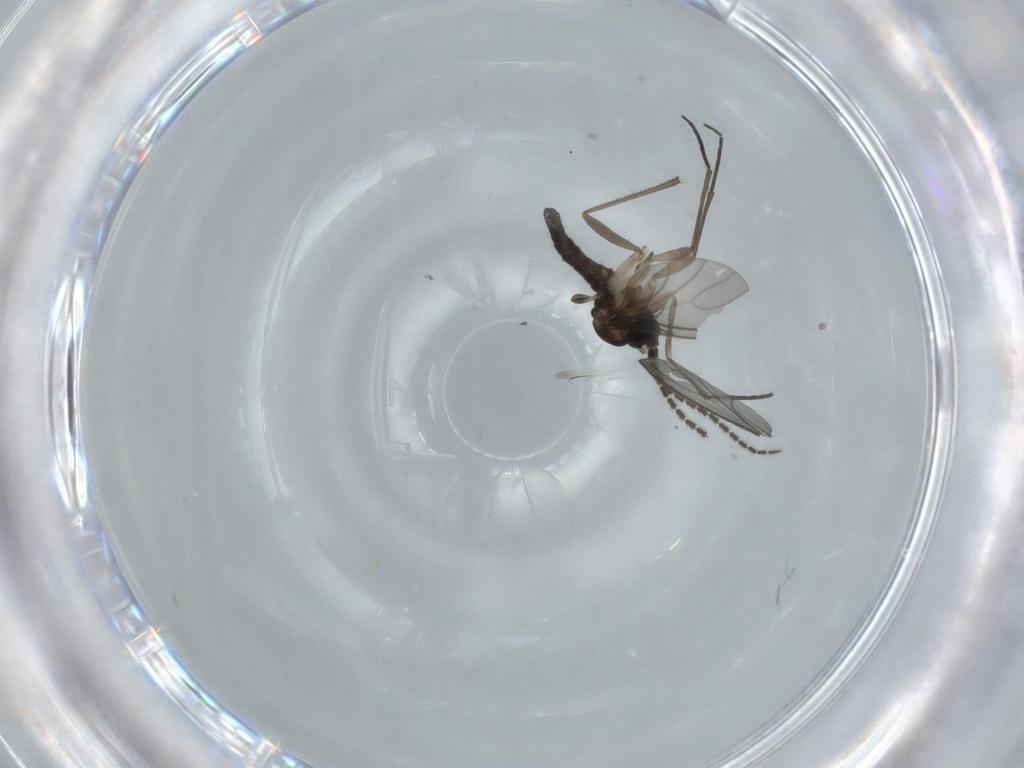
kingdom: Animalia
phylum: Arthropoda
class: Insecta
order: Diptera
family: Sciaridae
